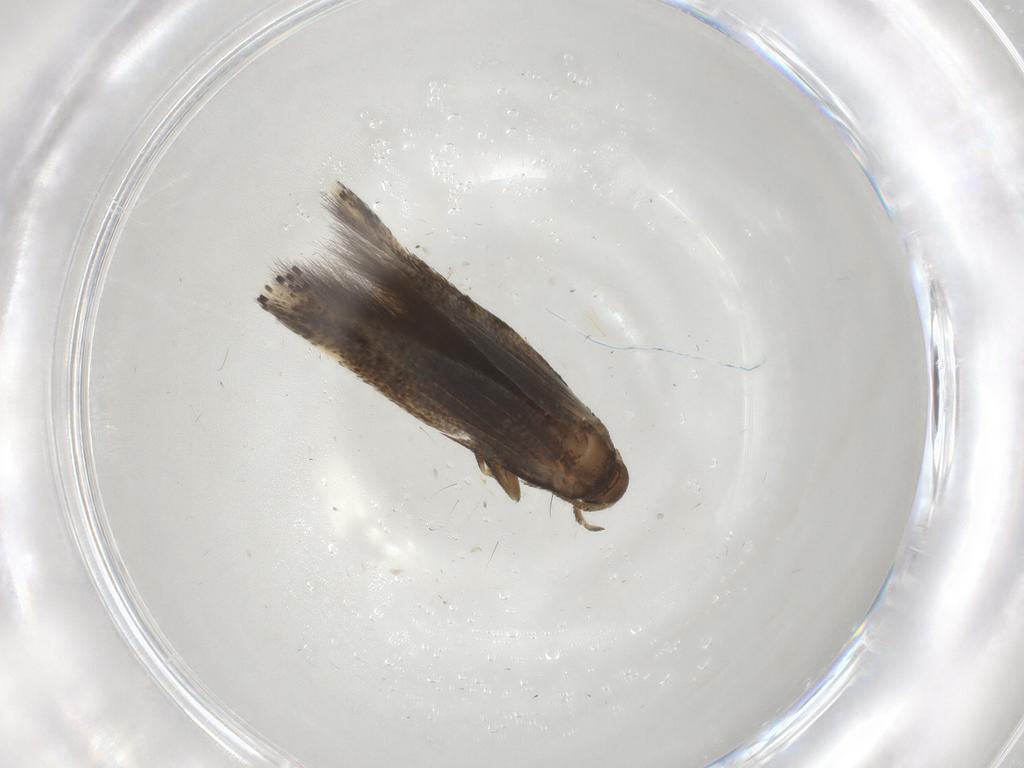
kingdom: Animalia
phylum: Arthropoda
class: Insecta
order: Lepidoptera
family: Elachistidae
